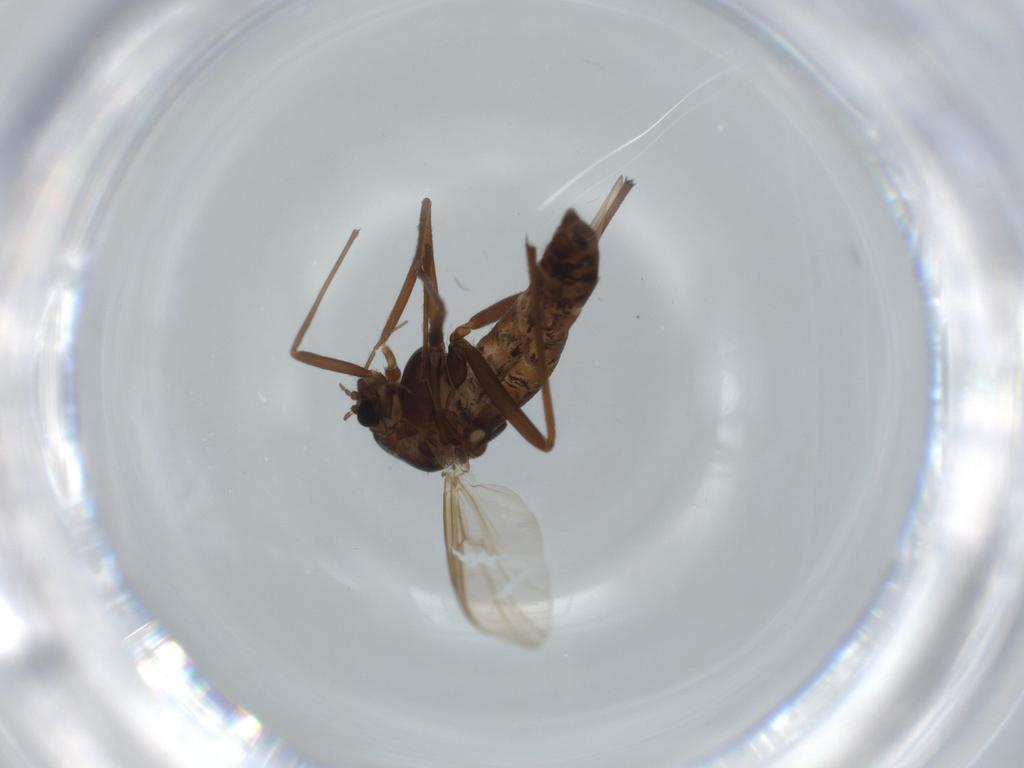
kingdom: Animalia
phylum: Arthropoda
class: Insecta
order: Diptera
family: Chironomidae
